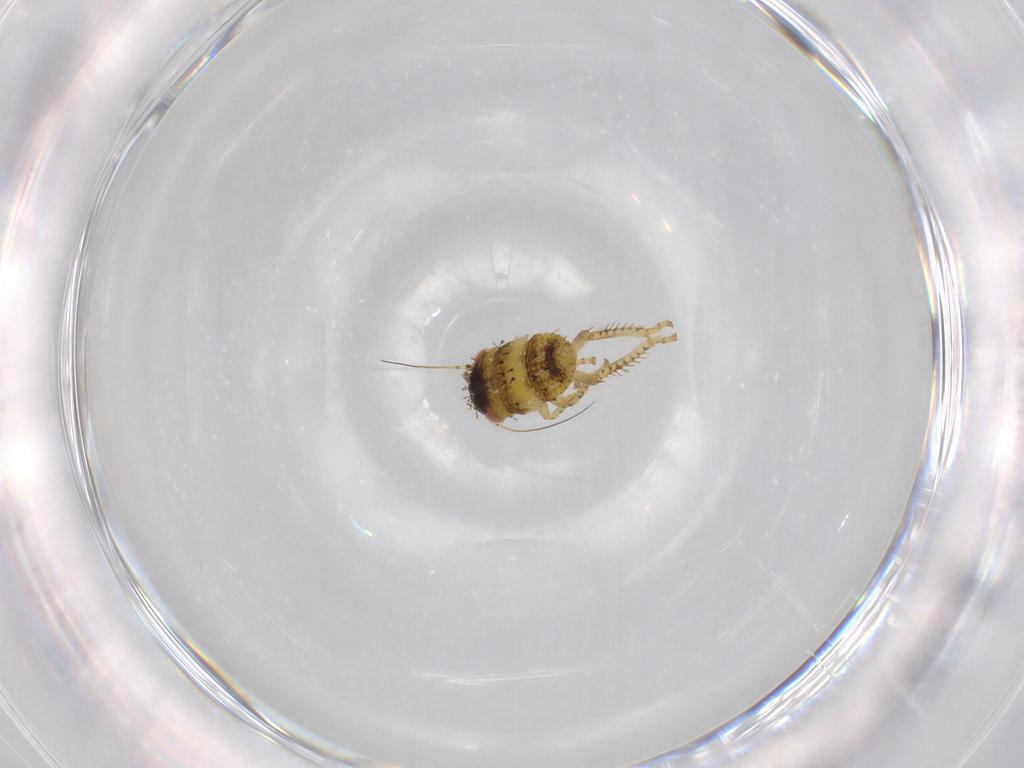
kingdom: Animalia
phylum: Arthropoda
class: Insecta
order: Hemiptera
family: Cicadellidae
